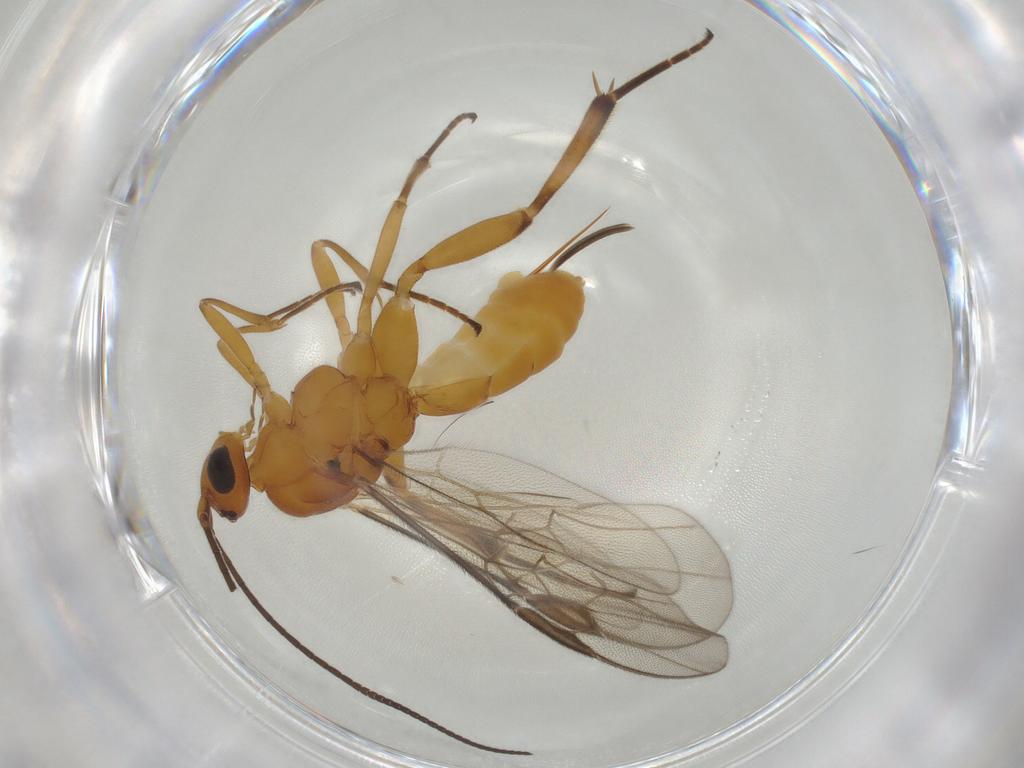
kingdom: Animalia
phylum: Arthropoda
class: Insecta
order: Hymenoptera
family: Braconidae
